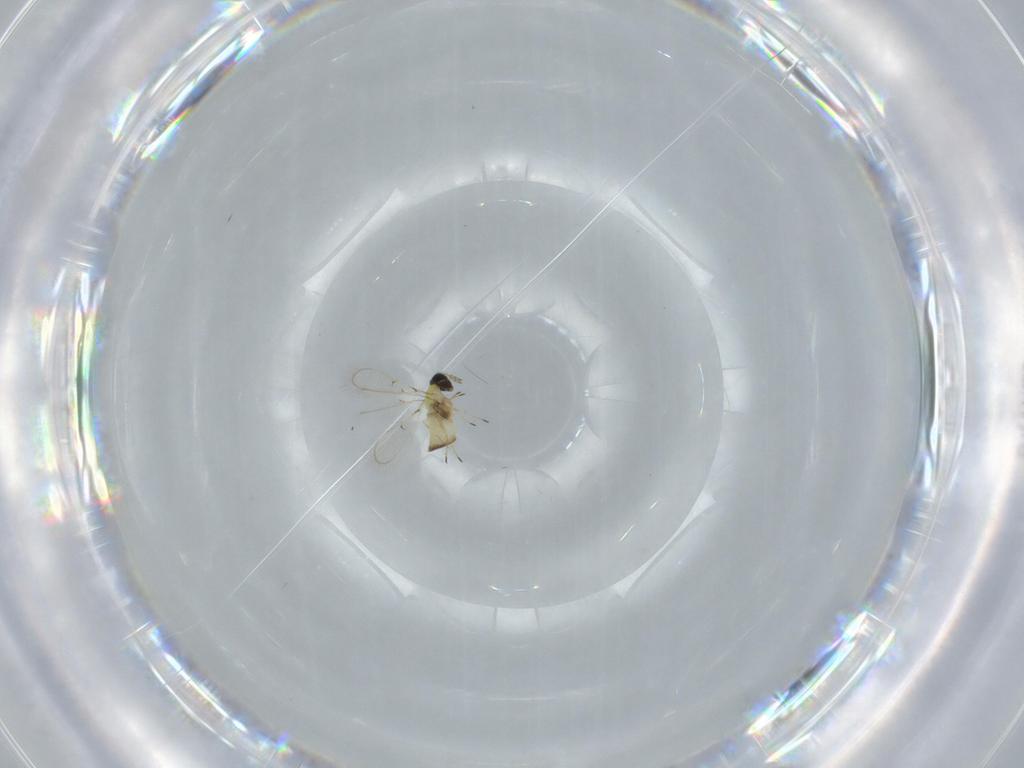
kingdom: Animalia
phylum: Arthropoda
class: Insecta
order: Hymenoptera
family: Trichogrammatidae
